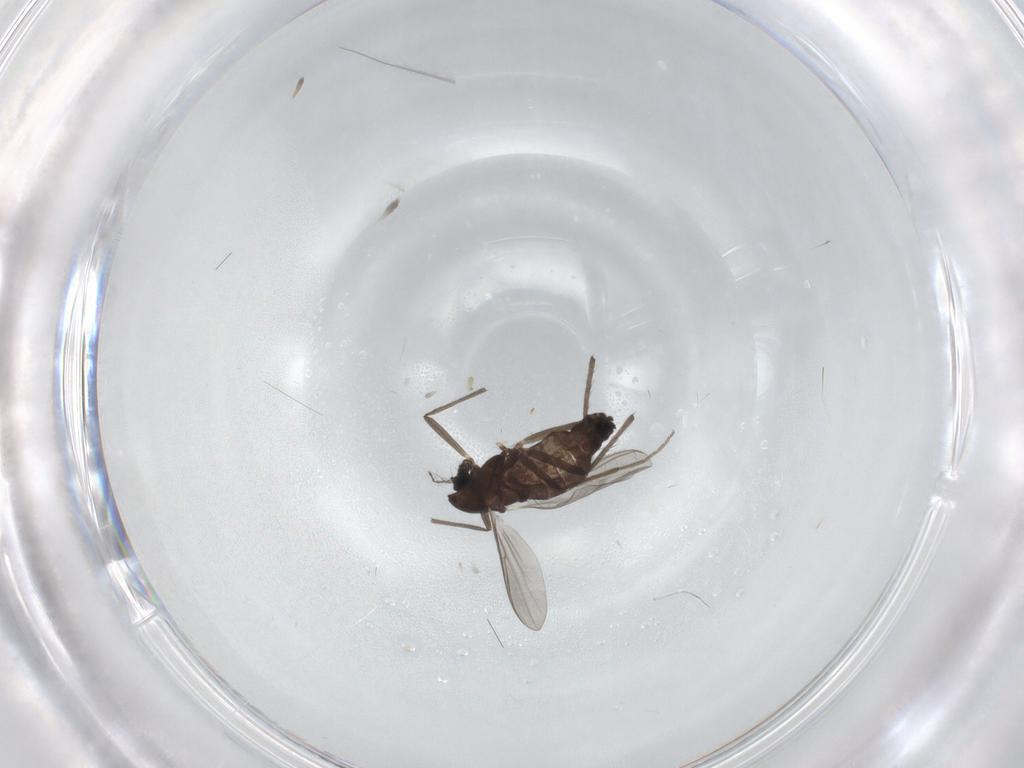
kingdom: Animalia
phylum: Arthropoda
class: Insecta
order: Diptera
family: Chironomidae
